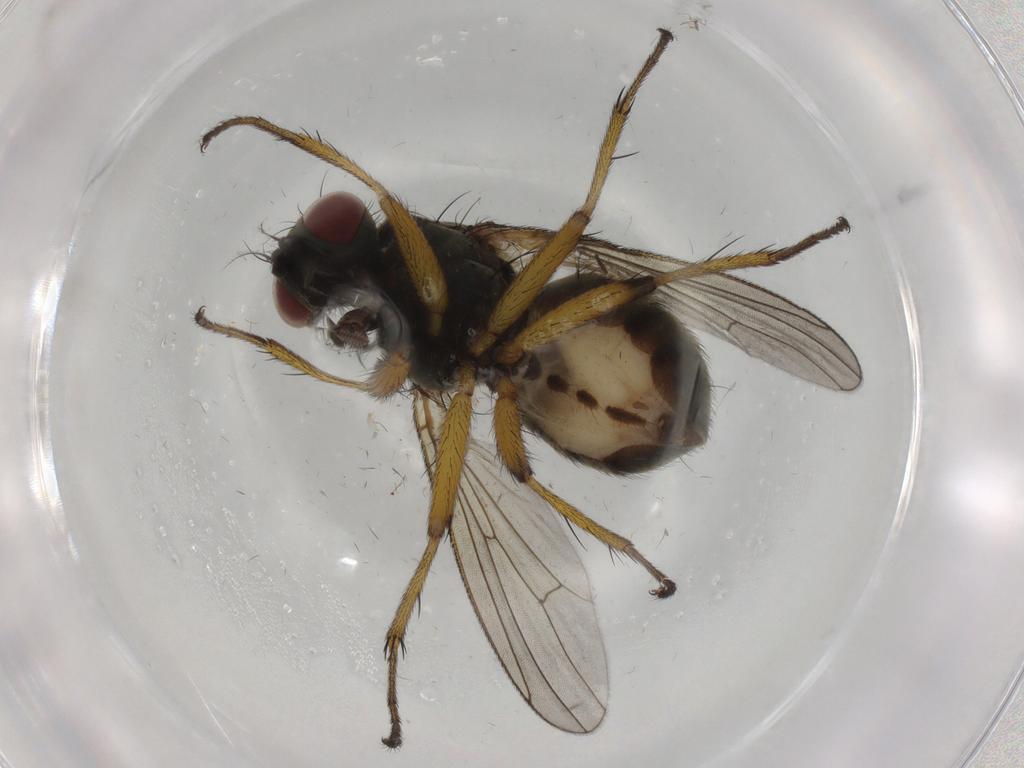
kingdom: Animalia
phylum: Arthropoda
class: Insecta
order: Diptera
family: Muscidae
